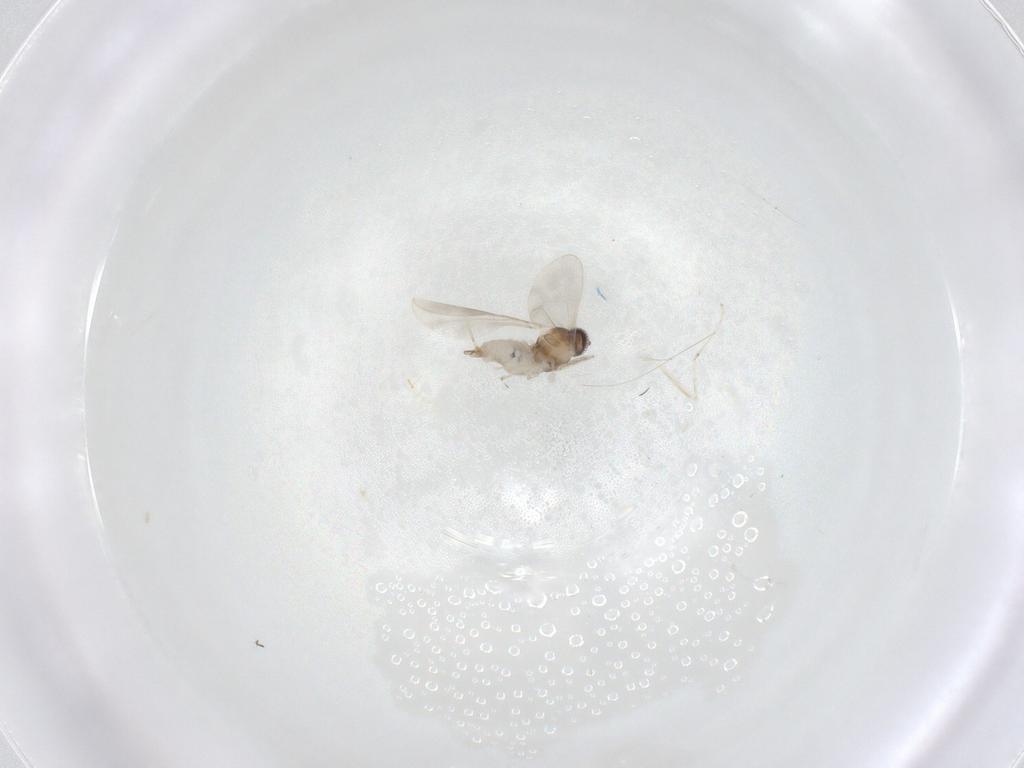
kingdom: Animalia
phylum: Arthropoda
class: Insecta
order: Diptera
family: Cecidomyiidae
